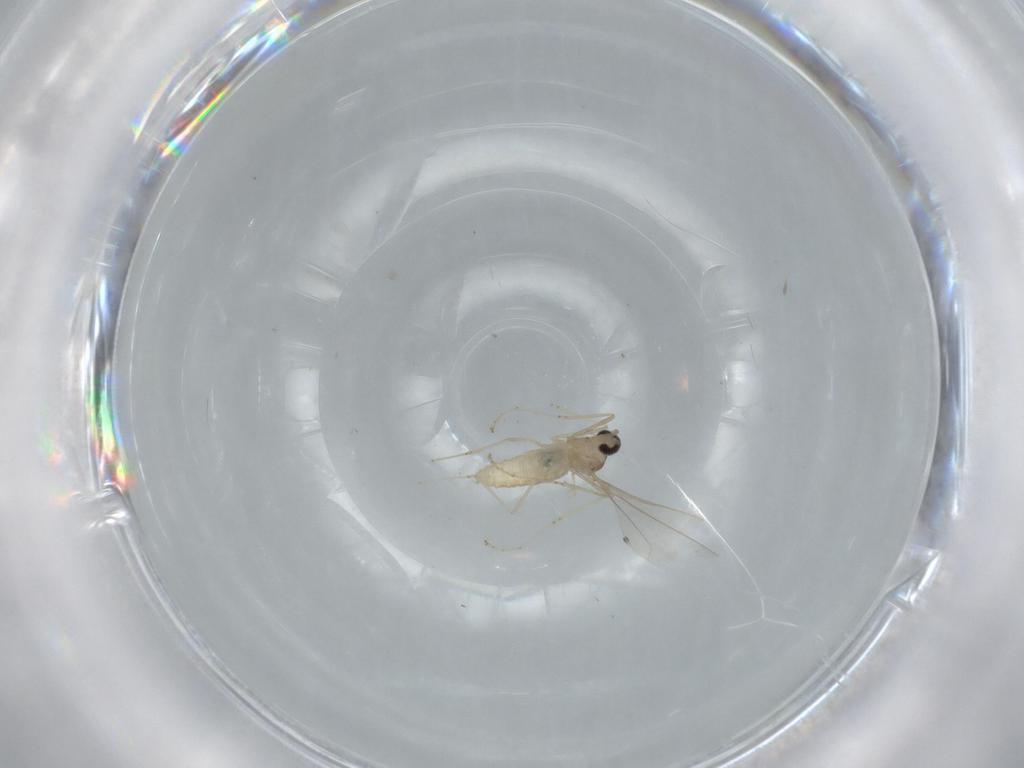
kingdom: Animalia
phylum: Arthropoda
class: Insecta
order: Diptera
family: Cecidomyiidae
